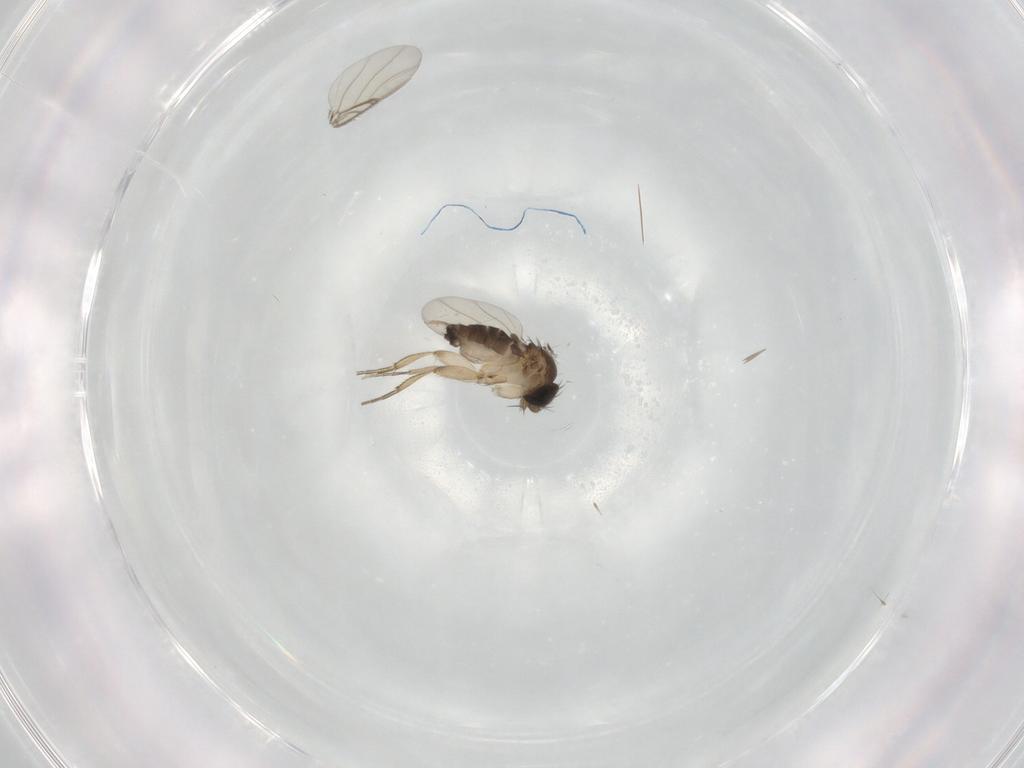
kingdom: Animalia
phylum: Arthropoda
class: Insecta
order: Diptera
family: Phoridae
